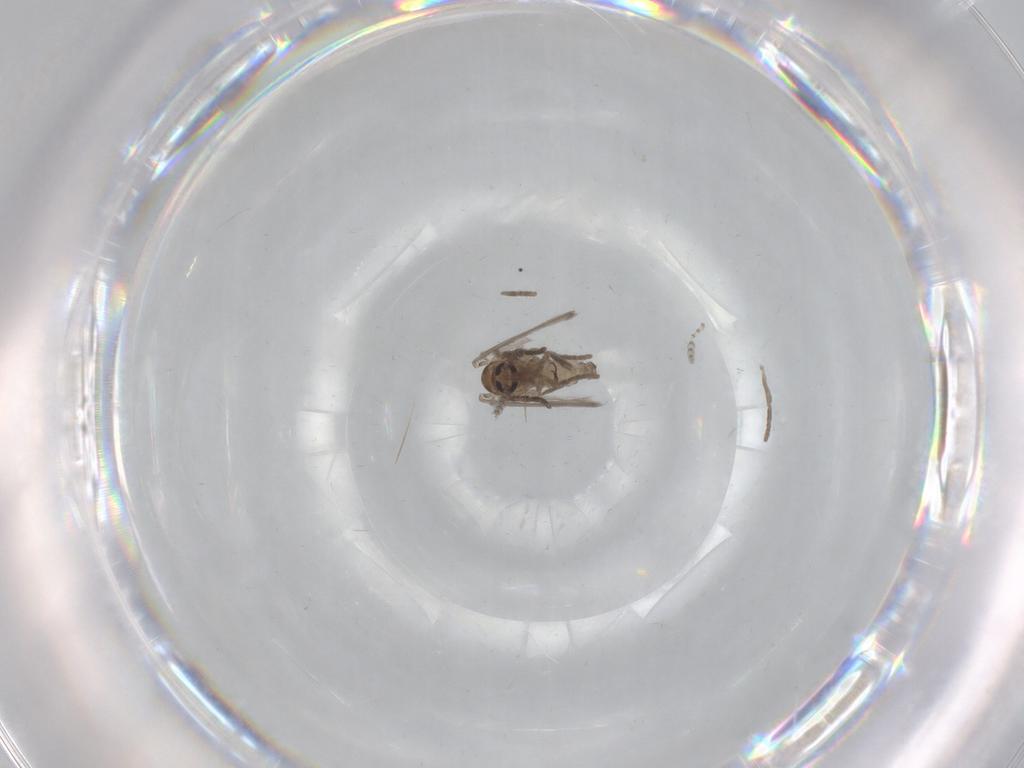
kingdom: Animalia
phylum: Arthropoda
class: Insecta
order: Diptera
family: Psychodidae
